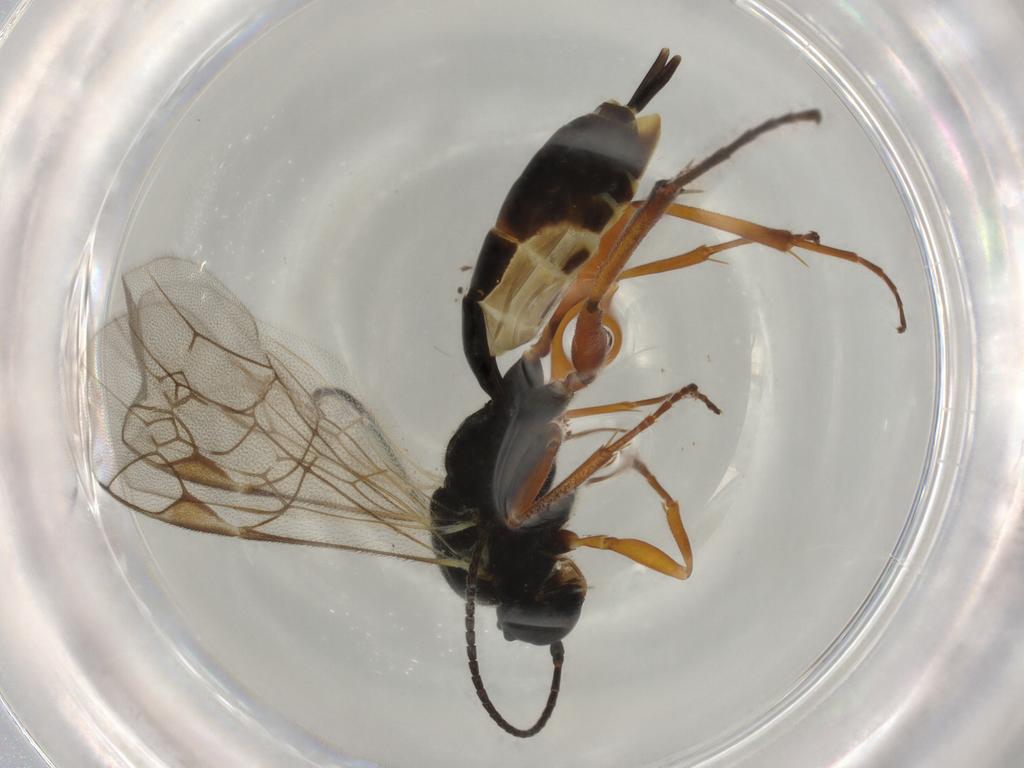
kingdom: Animalia
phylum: Arthropoda
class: Insecta
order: Hymenoptera
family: Ichneumonidae
